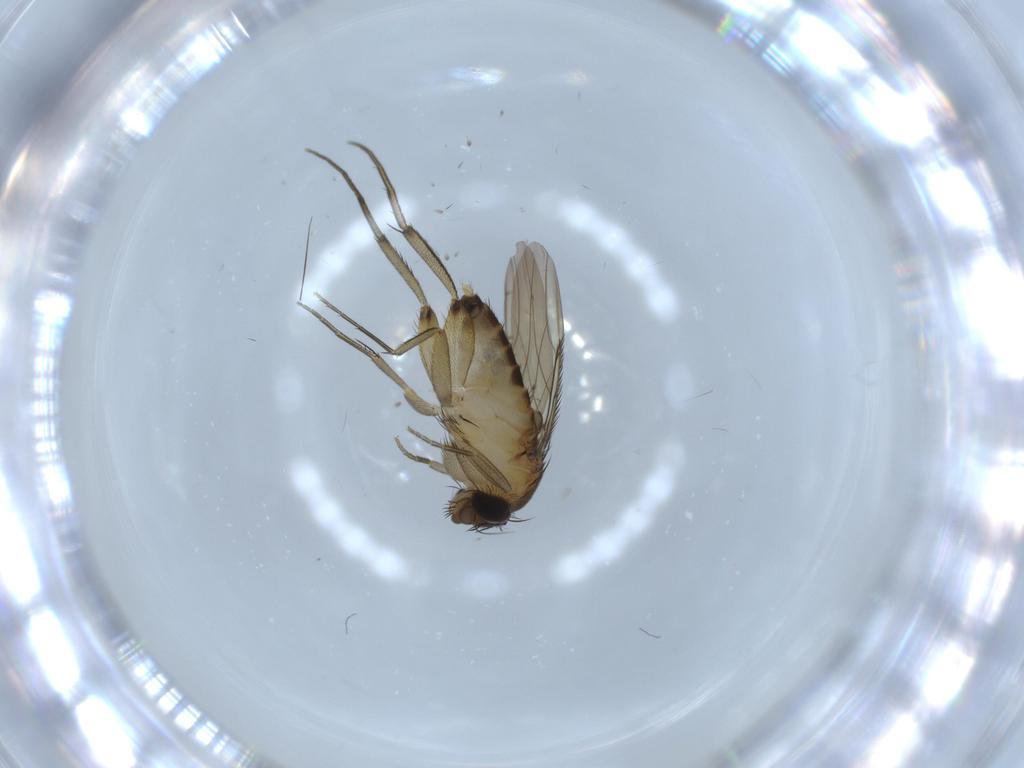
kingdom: Animalia
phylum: Arthropoda
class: Insecta
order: Diptera
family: Phoridae
